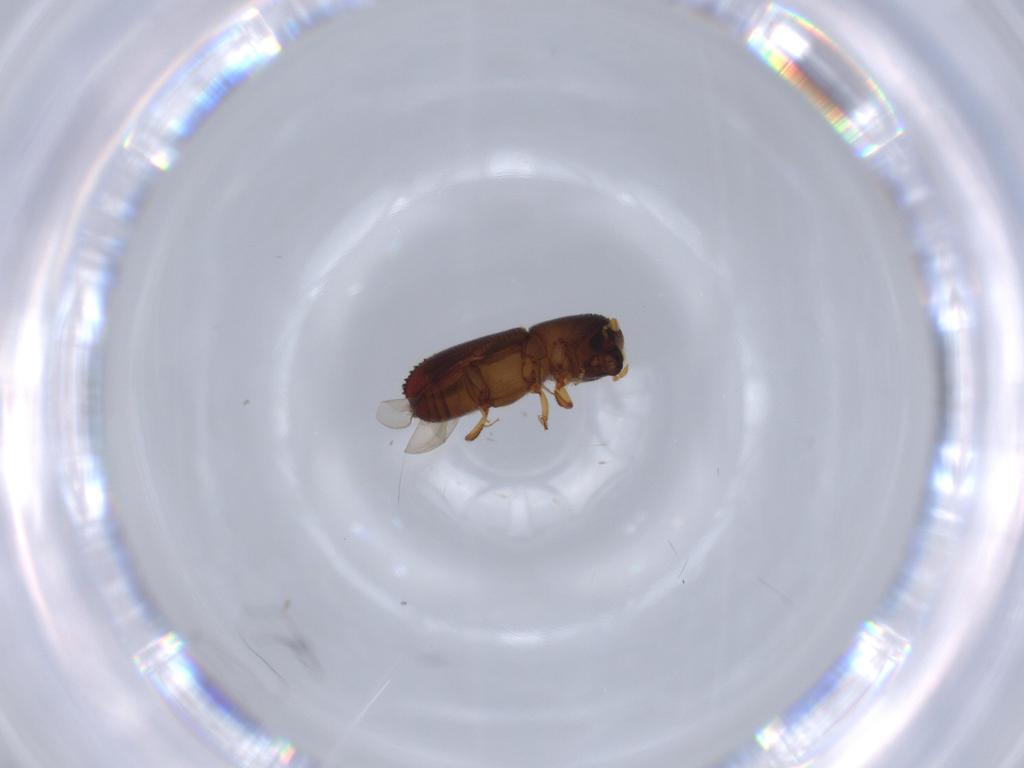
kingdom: Animalia
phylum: Arthropoda
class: Insecta
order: Coleoptera
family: Curculionidae
